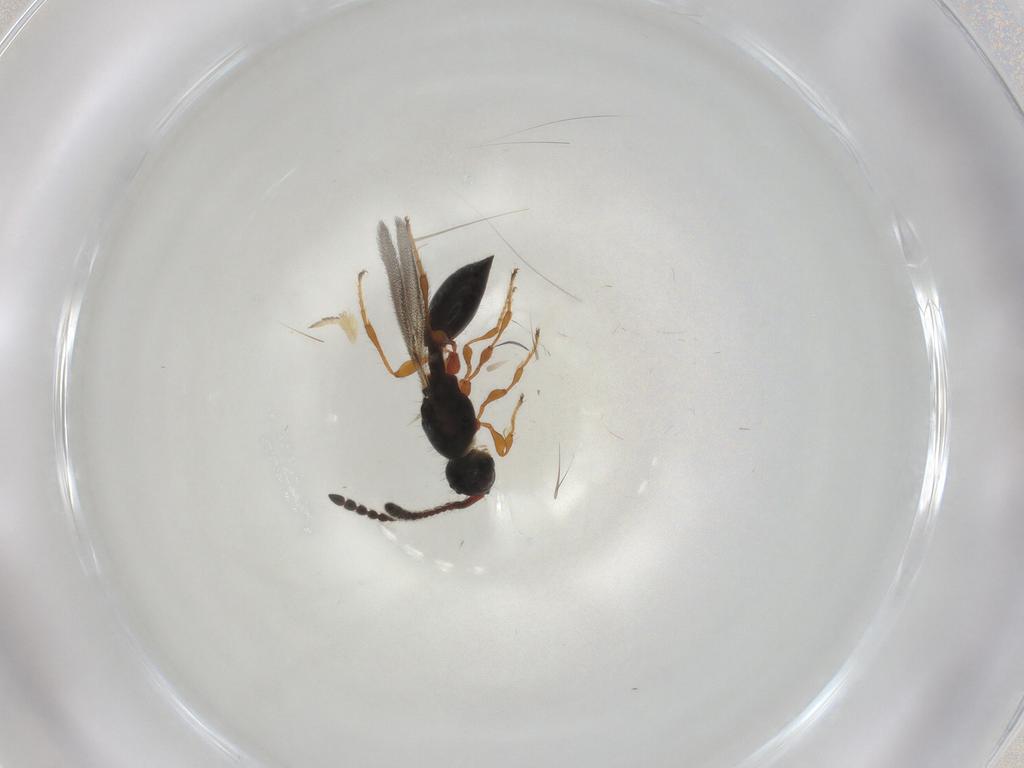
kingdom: Animalia
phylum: Arthropoda
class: Insecta
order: Hymenoptera
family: Diapriidae
